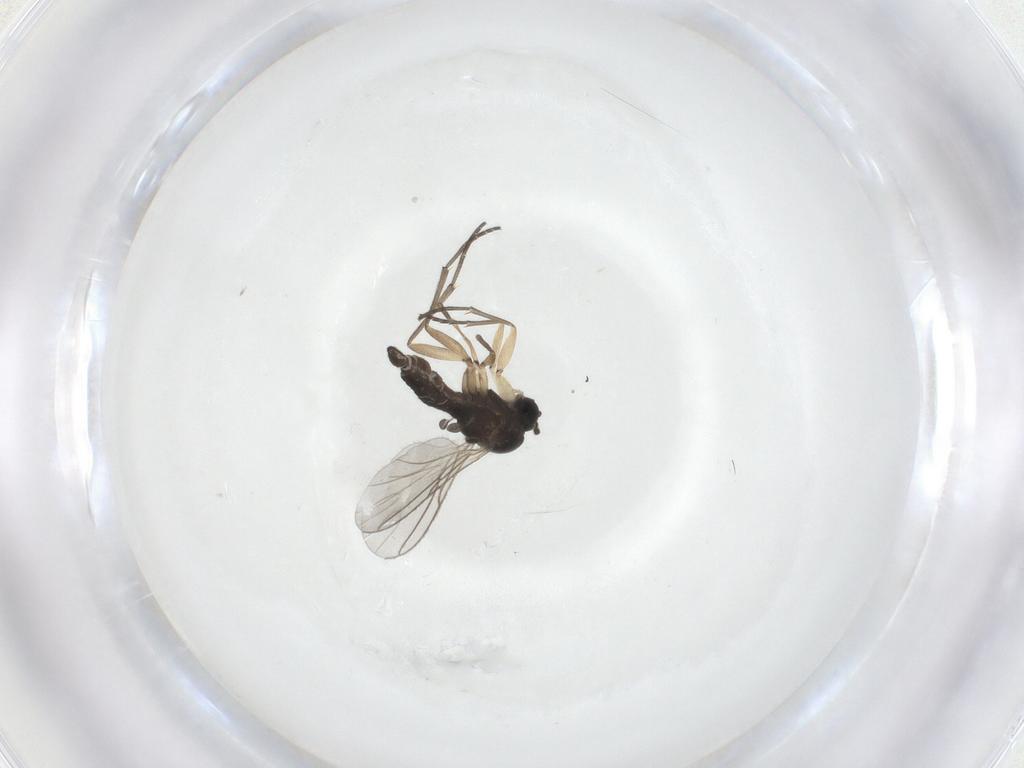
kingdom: Animalia
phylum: Arthropoda
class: Insecta
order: Diptera
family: Sciaridae
